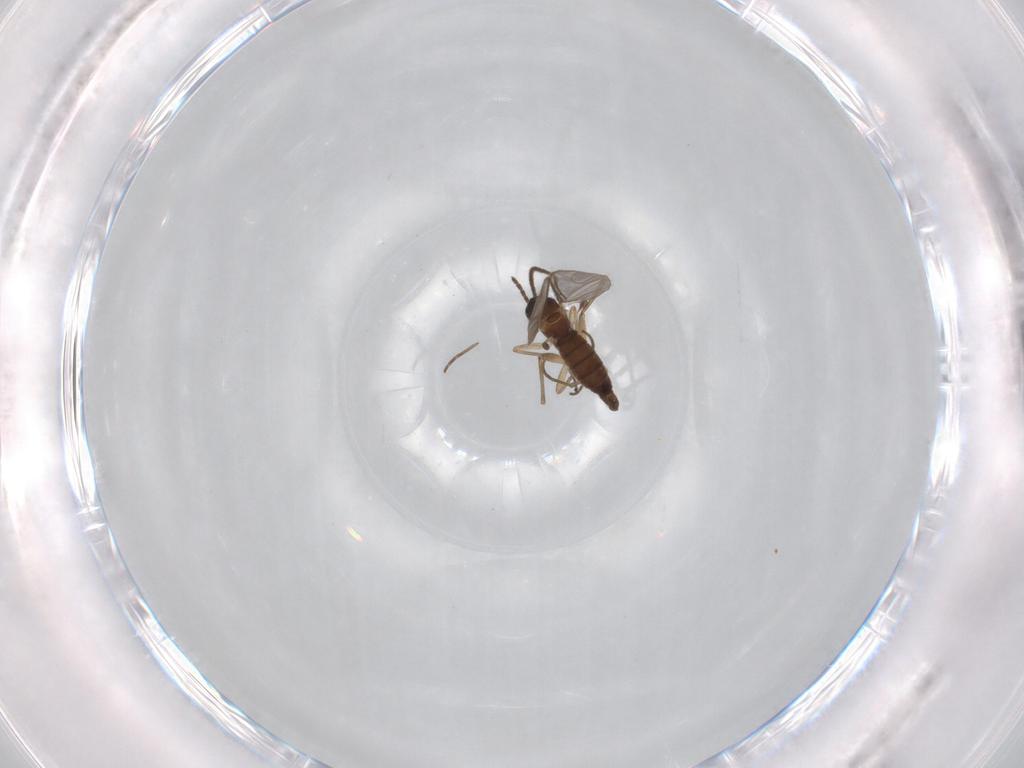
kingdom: Animalia
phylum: Arthropoda
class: Insecta
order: Diptera
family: Sciaridae
